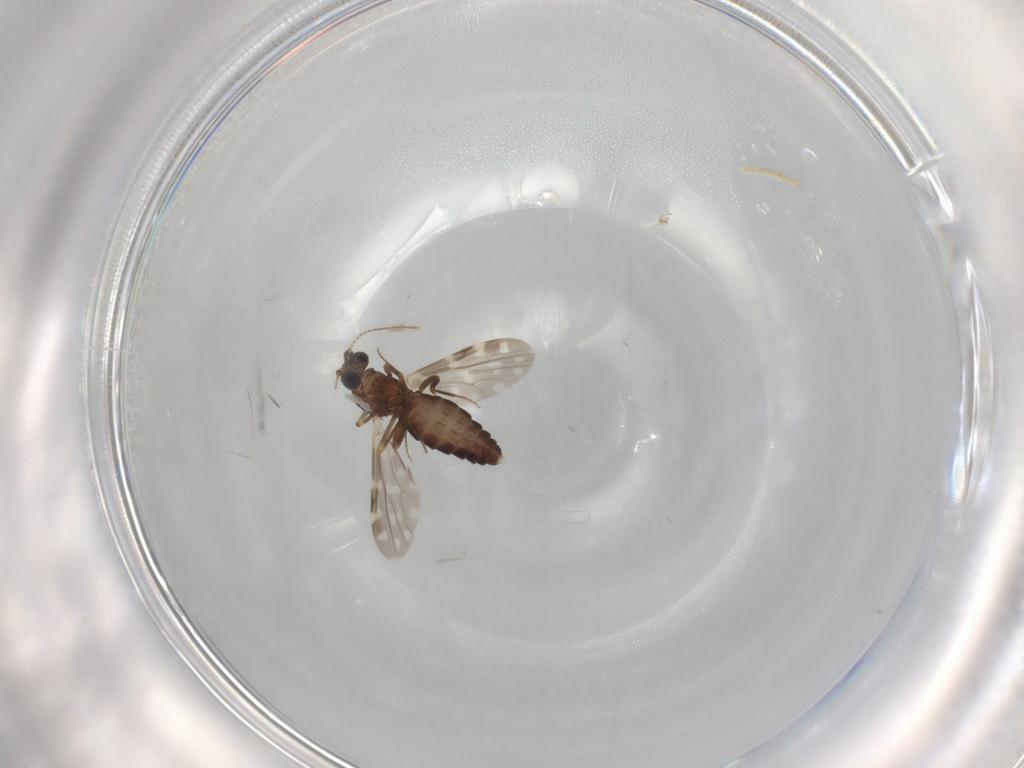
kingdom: Animalia
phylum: Arthropoda
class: Insecta
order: Diptera
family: Ceratopogonidae
